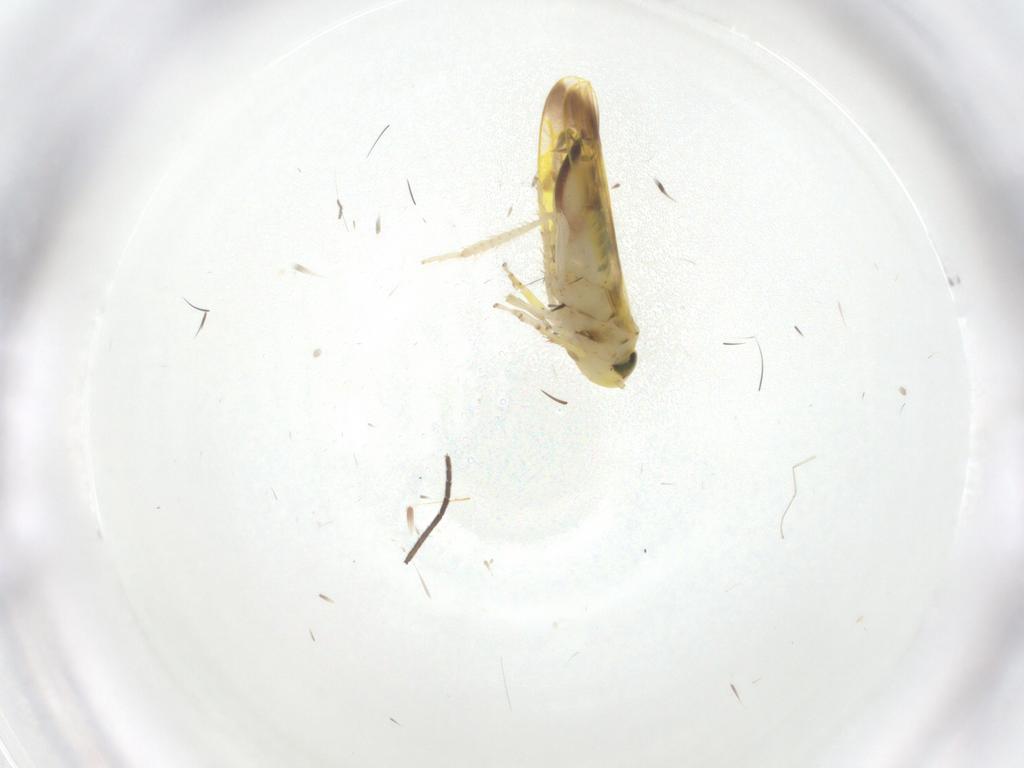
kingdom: Animalia
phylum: Arthropoda
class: Insecta
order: Hemiptera
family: Cicadellidae
